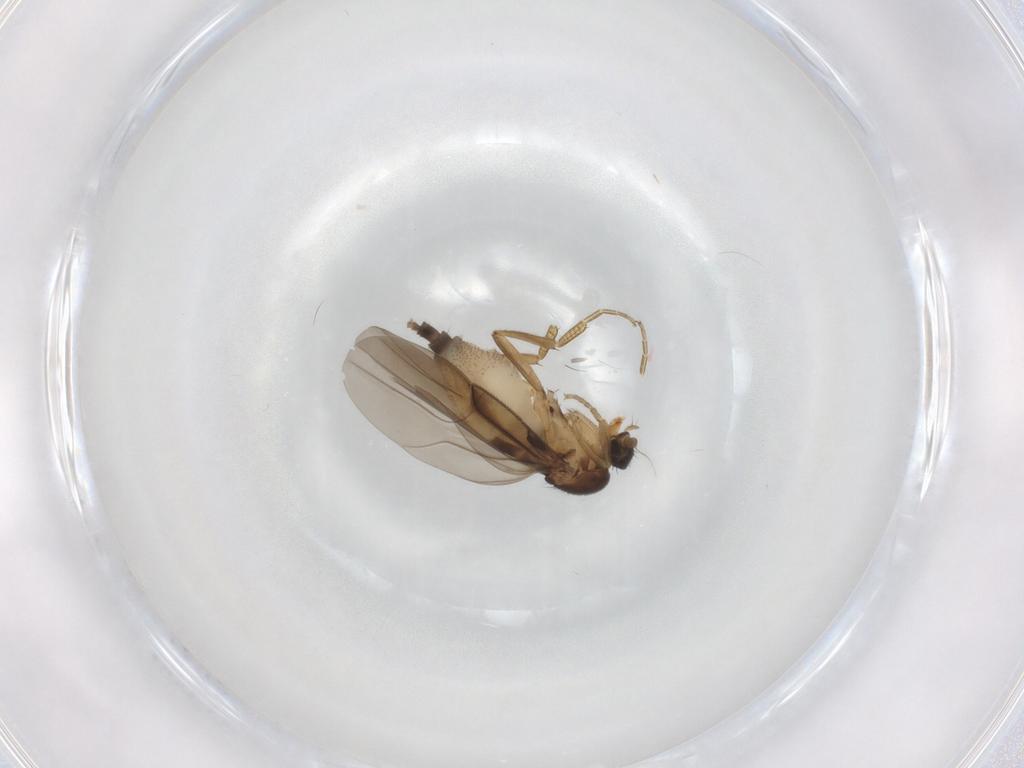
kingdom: Animalia
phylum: Arthropoda
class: Insecta
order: Diptera
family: Phoridae
